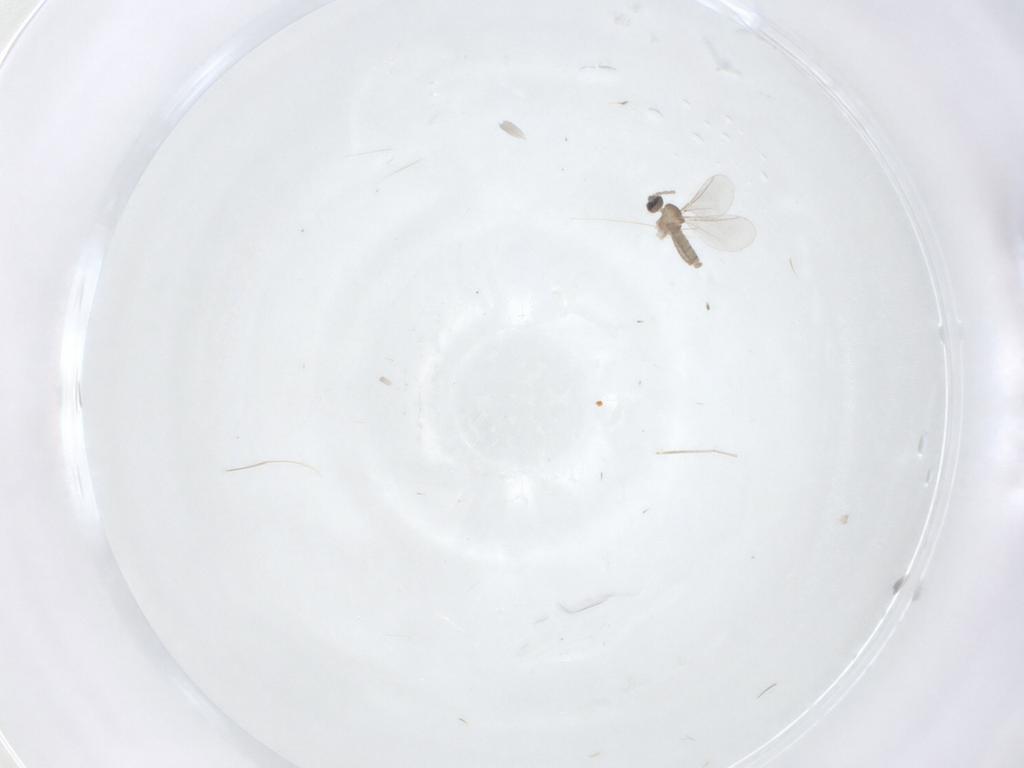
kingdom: Animalia
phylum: Arthropoda
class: Insecta
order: Diptera
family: Cecidomyiidae
